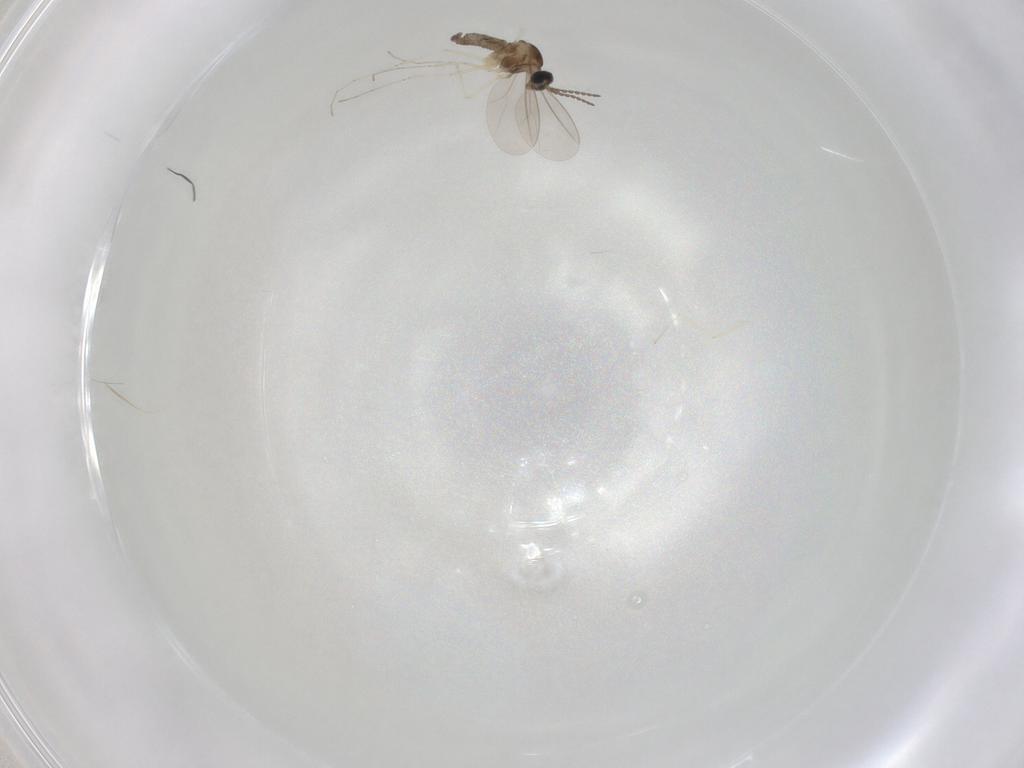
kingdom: Animalia
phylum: Arthropoda
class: Insecta
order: Diptera
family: Cecidomyiidae
